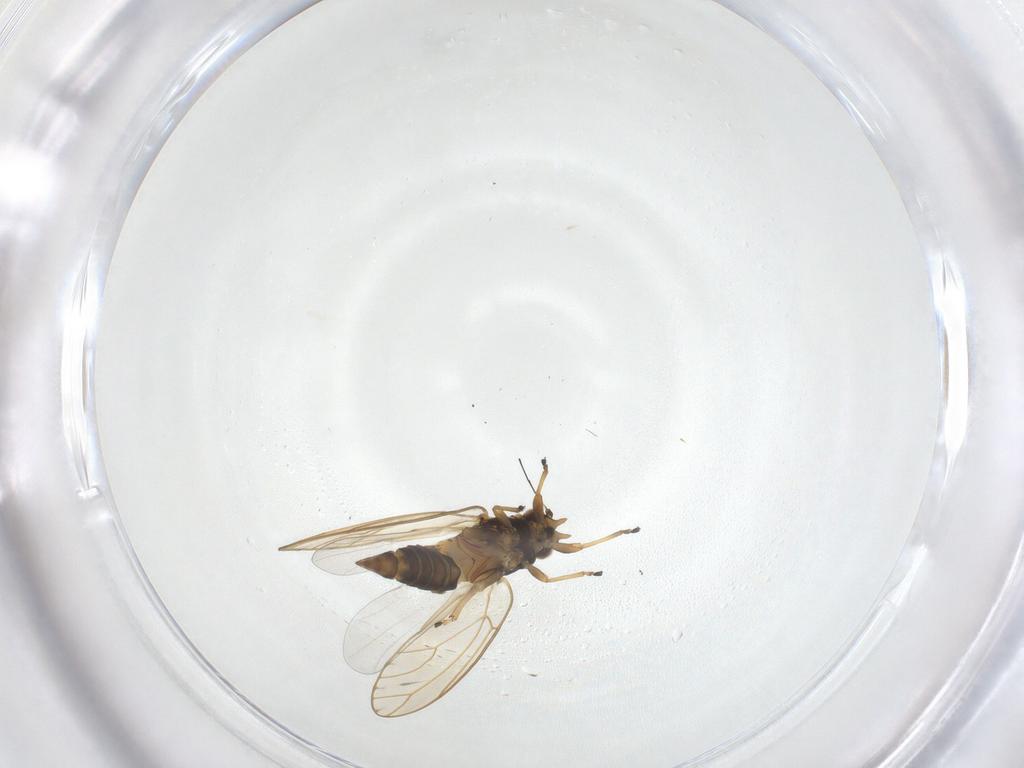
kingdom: Animalia
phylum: Arthropoda
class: Insecta
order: Hemiptera
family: Triozidae
